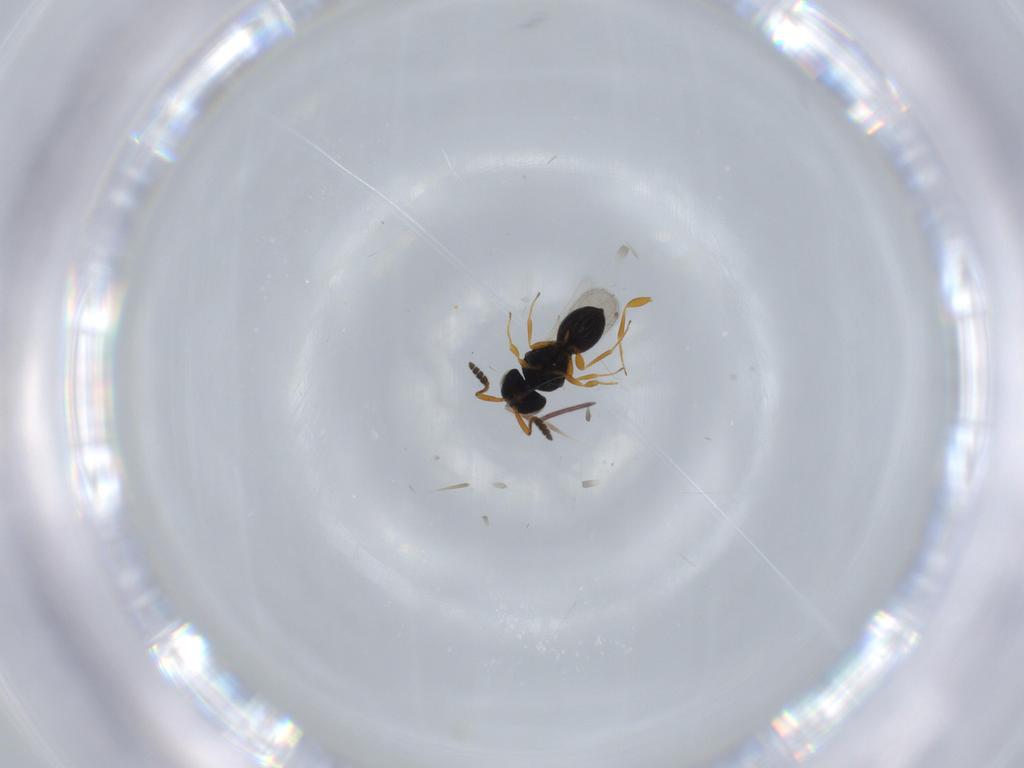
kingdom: Animalia
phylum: Arthropoda
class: Insecta
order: Hymenoptera
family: Scelionidae
